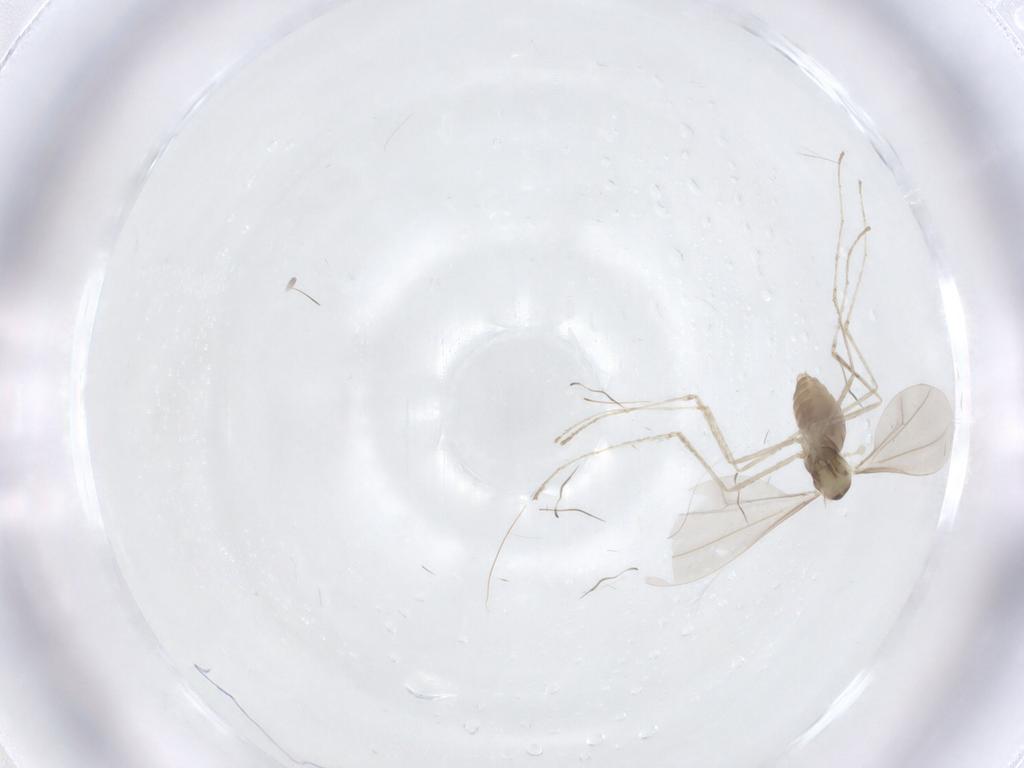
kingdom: Animalia
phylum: Arthropoda
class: Insecta
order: Diptera
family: Cecidomyiidae
